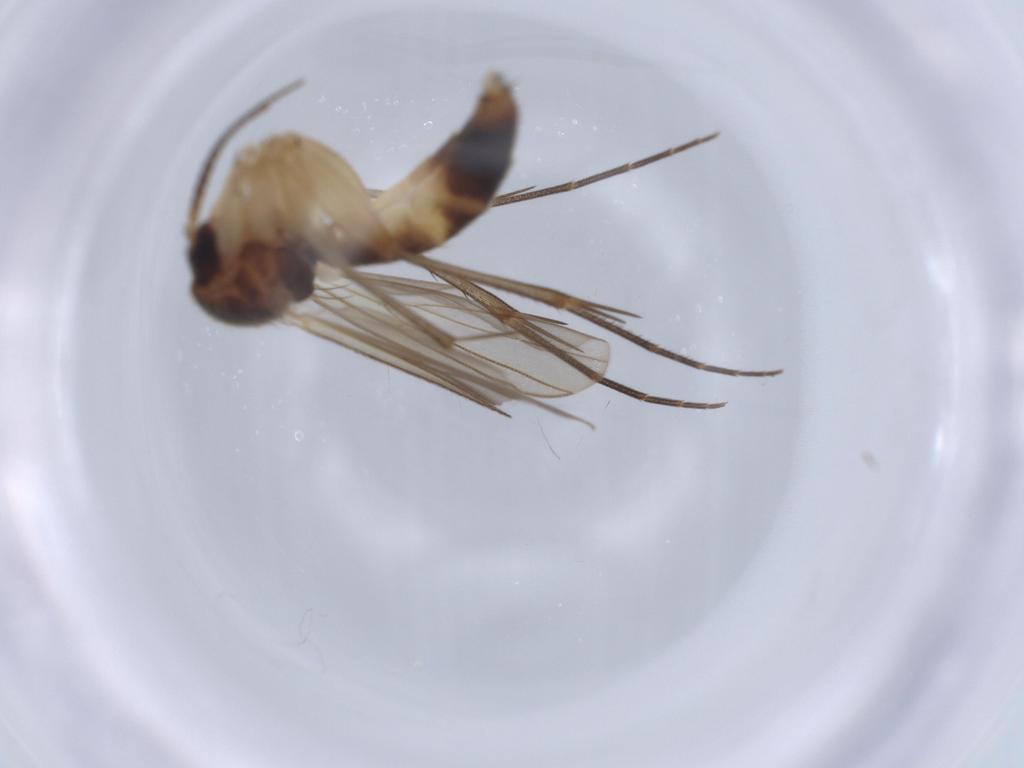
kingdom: Animalia
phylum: Arthropoda
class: Insecta
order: Diptera
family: Mycetophilidae
